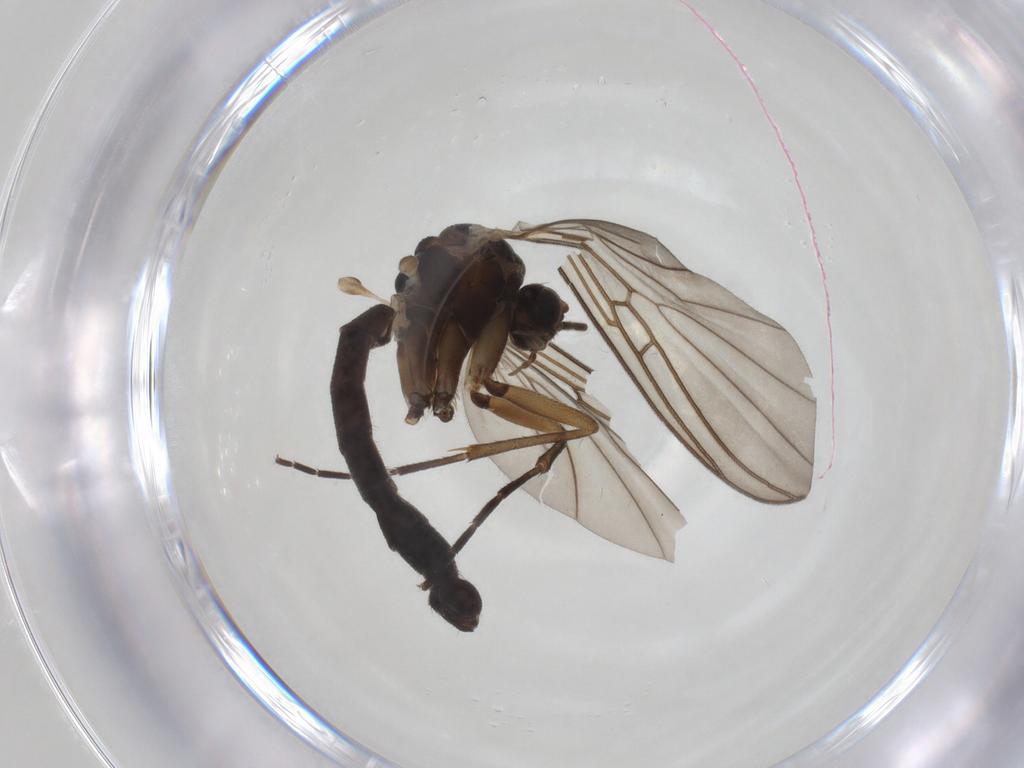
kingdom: Animalia
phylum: Arthropoda
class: Insecta
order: Diptera
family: Mycetophilidae
